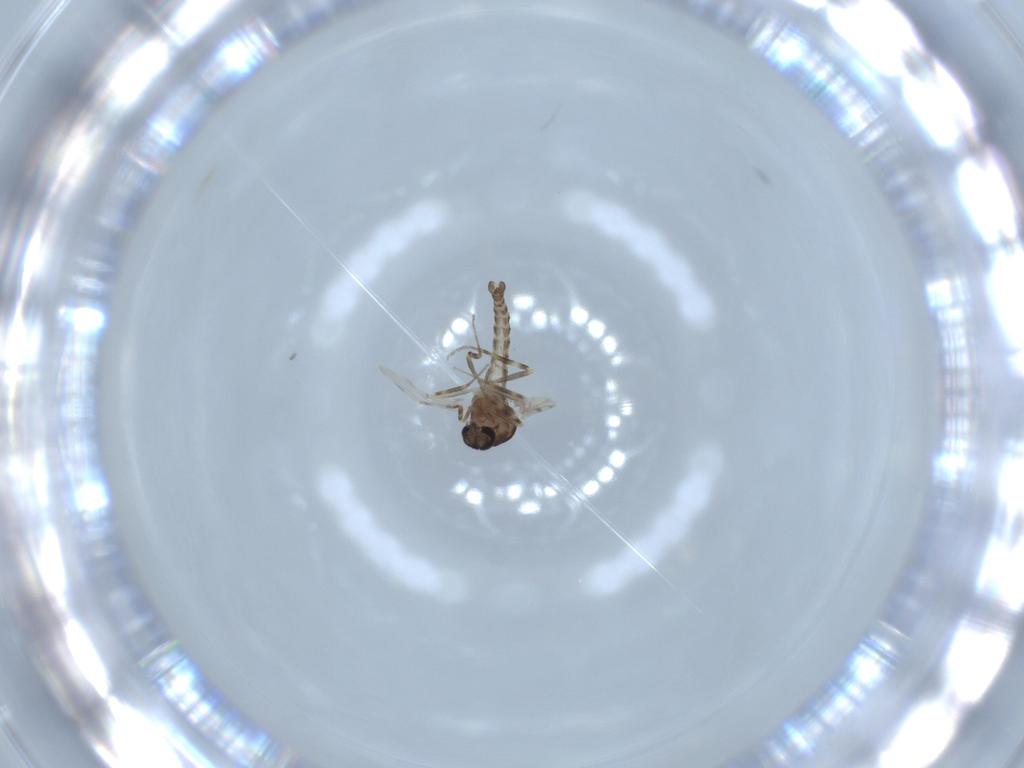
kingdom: Animalia
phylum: Arthropoda
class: Insecta
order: Diptera
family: Ceratopogonidae
